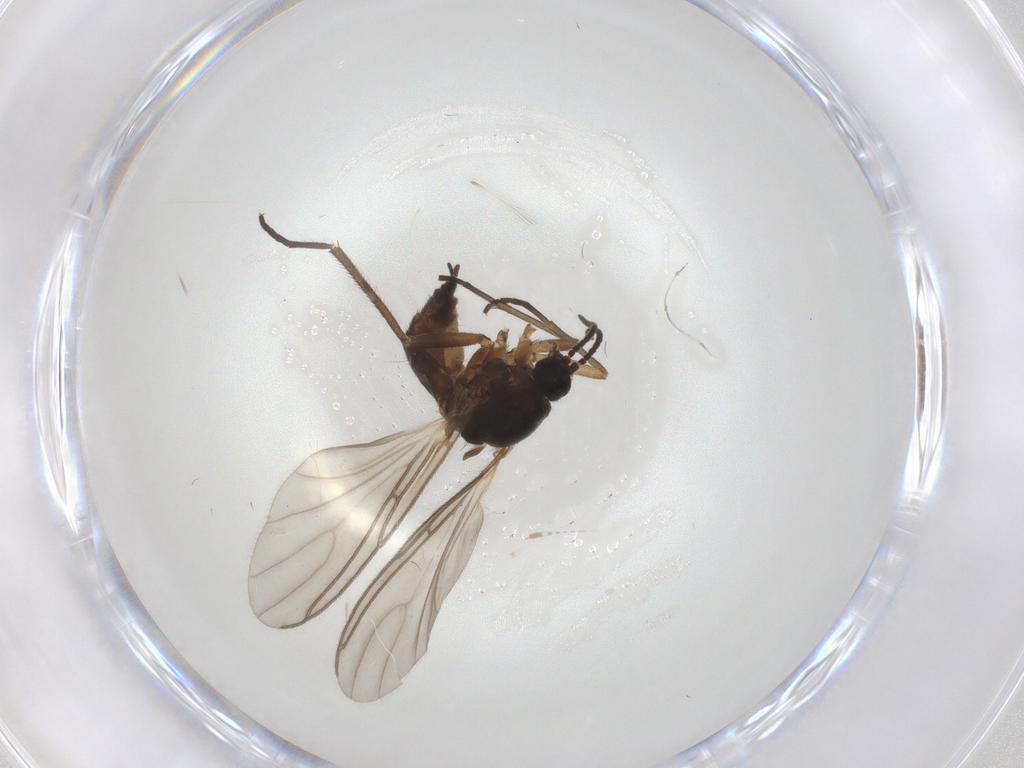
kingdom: Animalia
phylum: Arthropoda
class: Insecta
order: Diptera
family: Sciaridae
